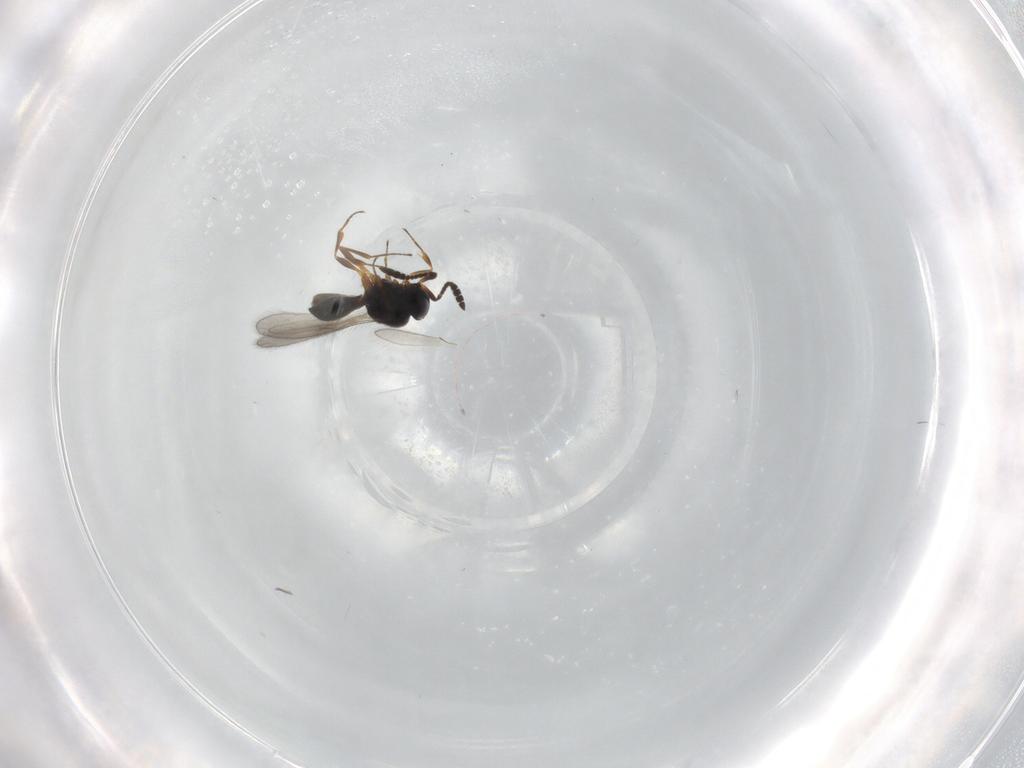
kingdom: Animalia
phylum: Arthropoda
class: Insecta
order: Hymenoptera
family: Scelionidae
